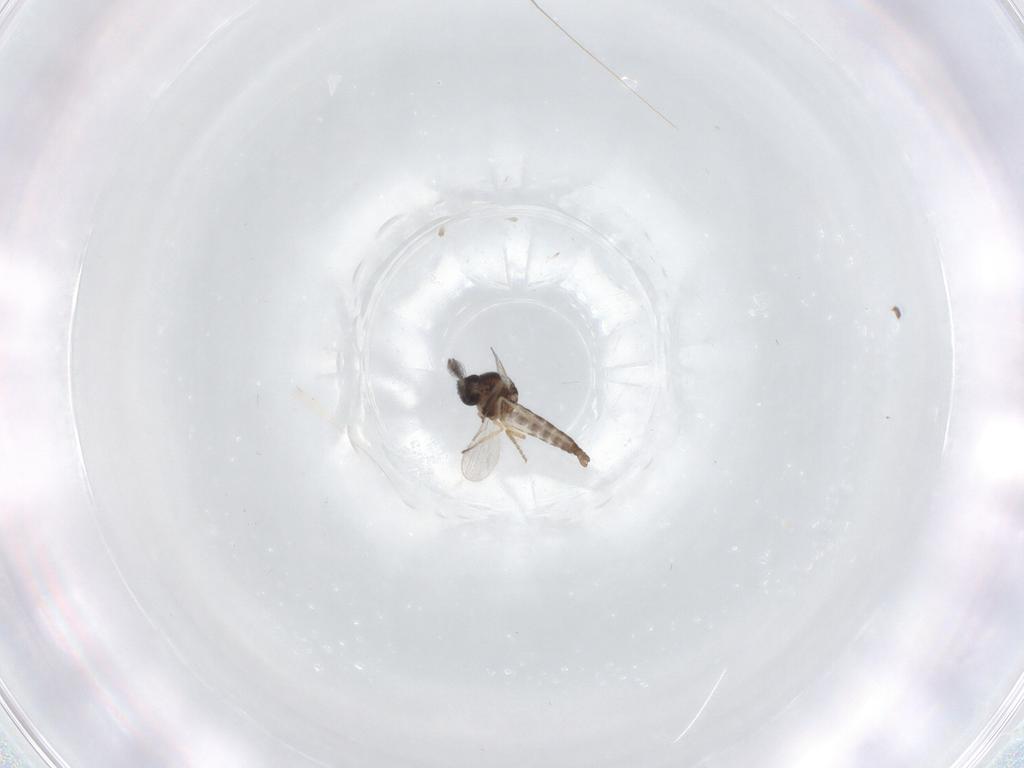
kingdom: Animalia
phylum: Arthropoda
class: Insecta
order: Diptera
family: Ceratopogonidae
